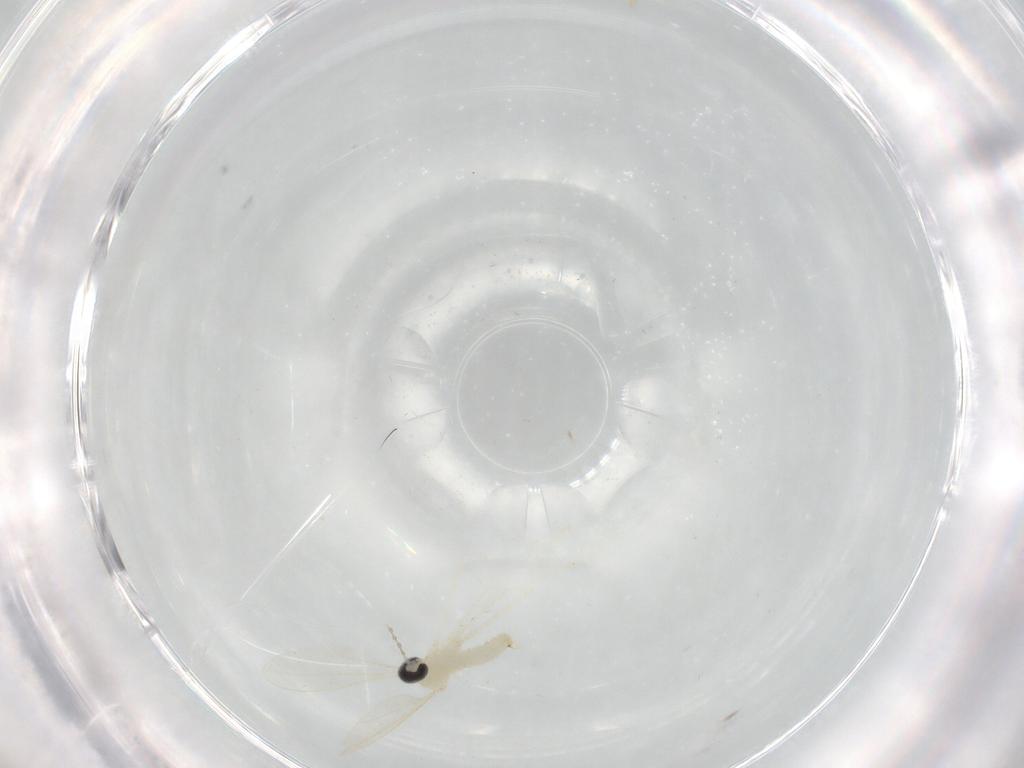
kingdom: Animalia
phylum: Arthropoda
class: Insecta
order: Diptera
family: Cecidomyiidae
